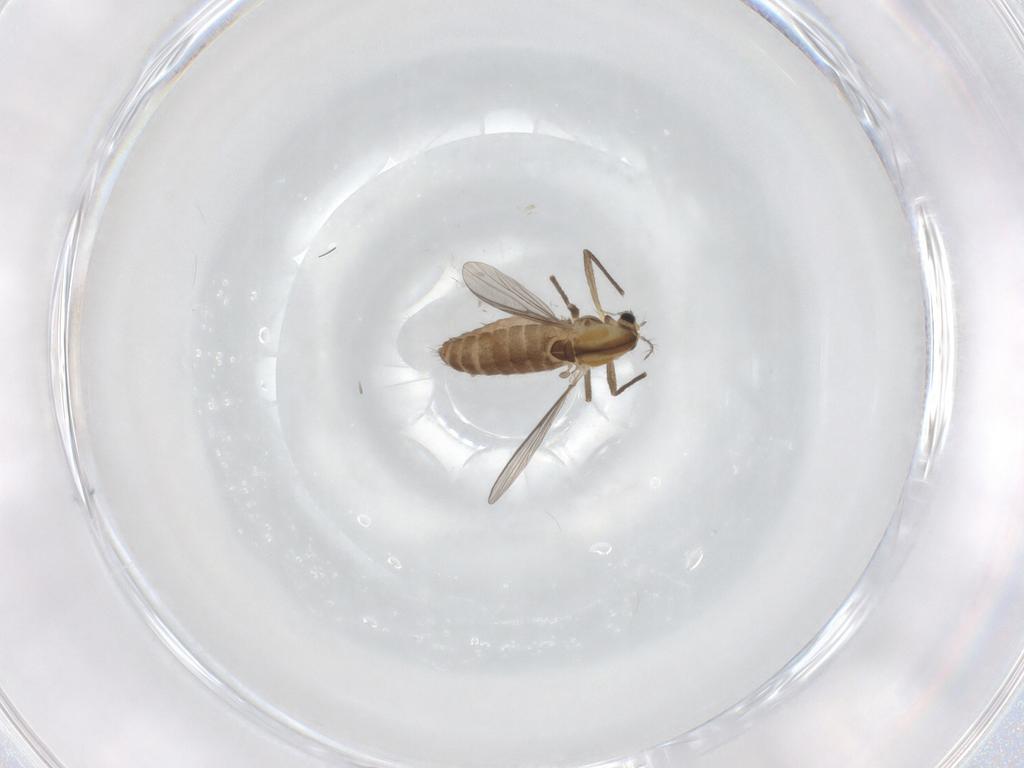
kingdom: Animalia
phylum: Arthropoda
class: Insecta
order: Diptera
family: Chironomidae
